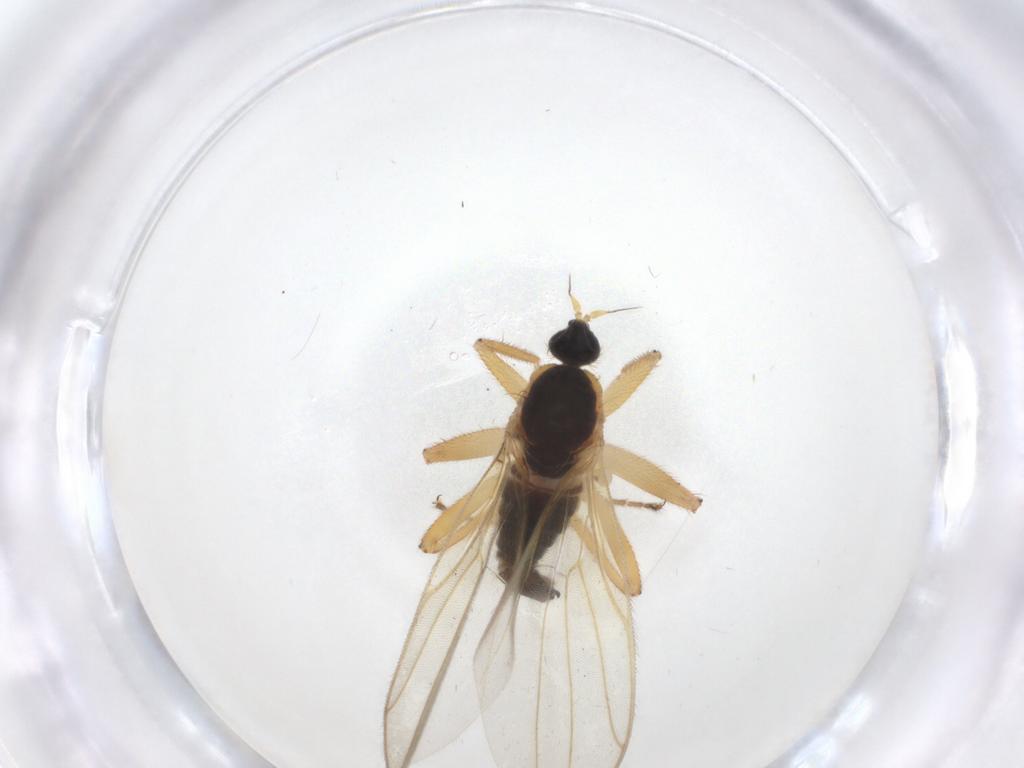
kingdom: Animalia
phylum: Arthropoda
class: Insecta
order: Diptera
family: Hybotidae
